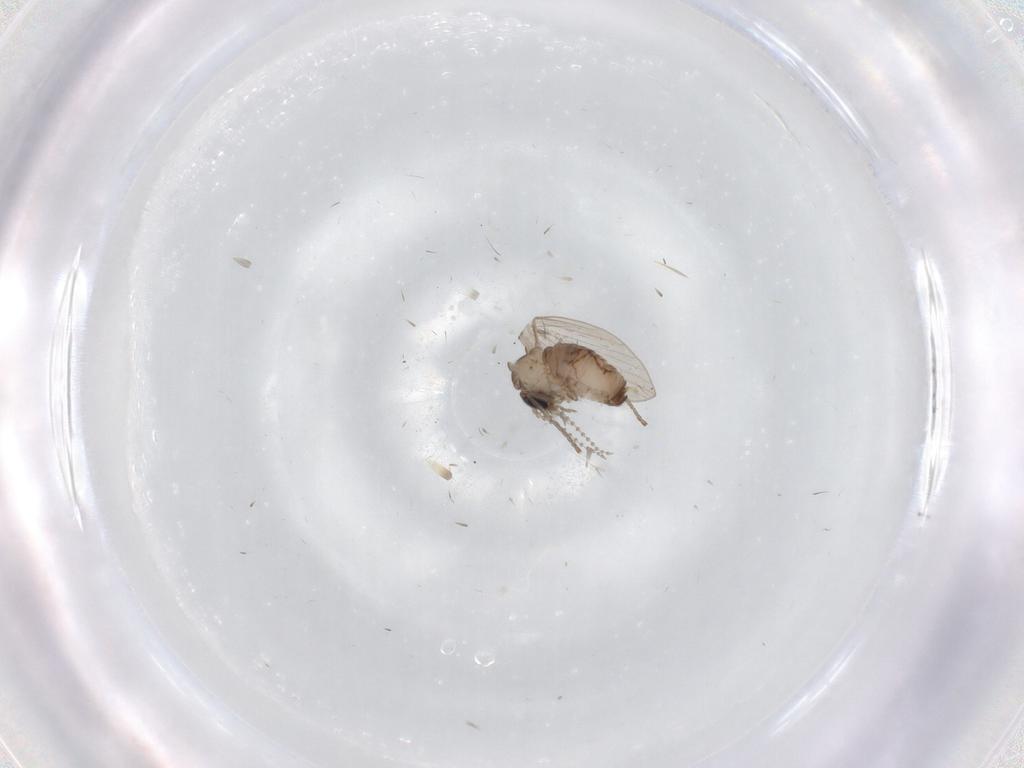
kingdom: Animalia
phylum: Arthropoda
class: Insecta
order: Diptera
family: Psychodidae
